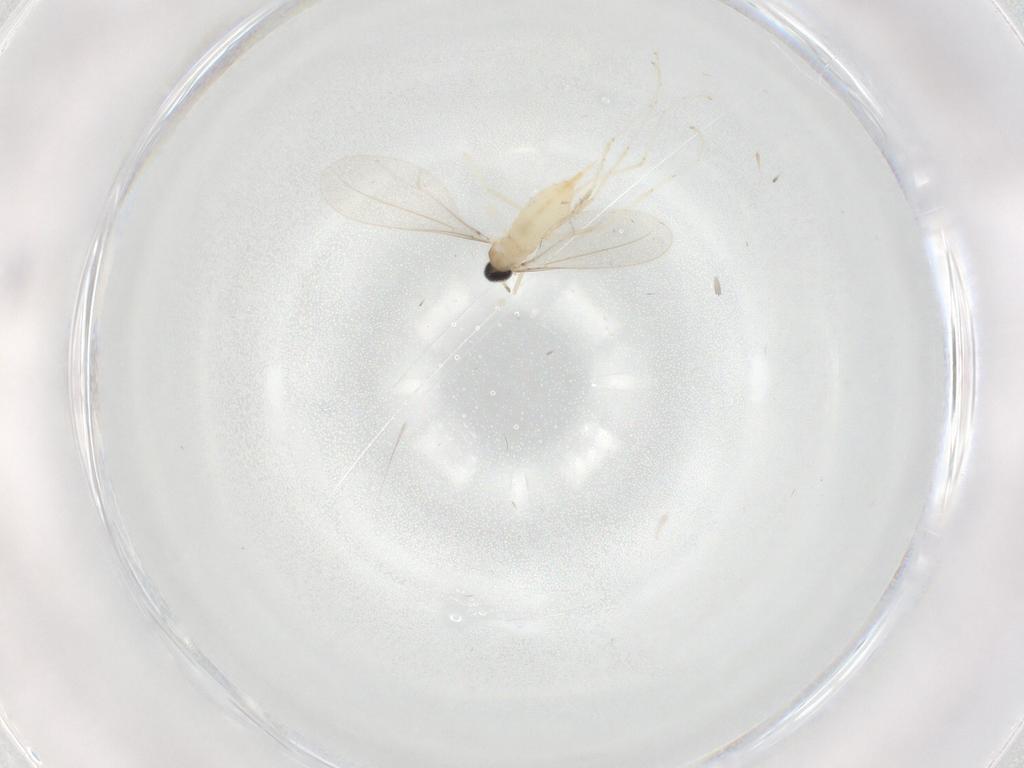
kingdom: Animalia
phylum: Arthropoda
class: Insecta
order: Diptera
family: Cecidomyiidae
